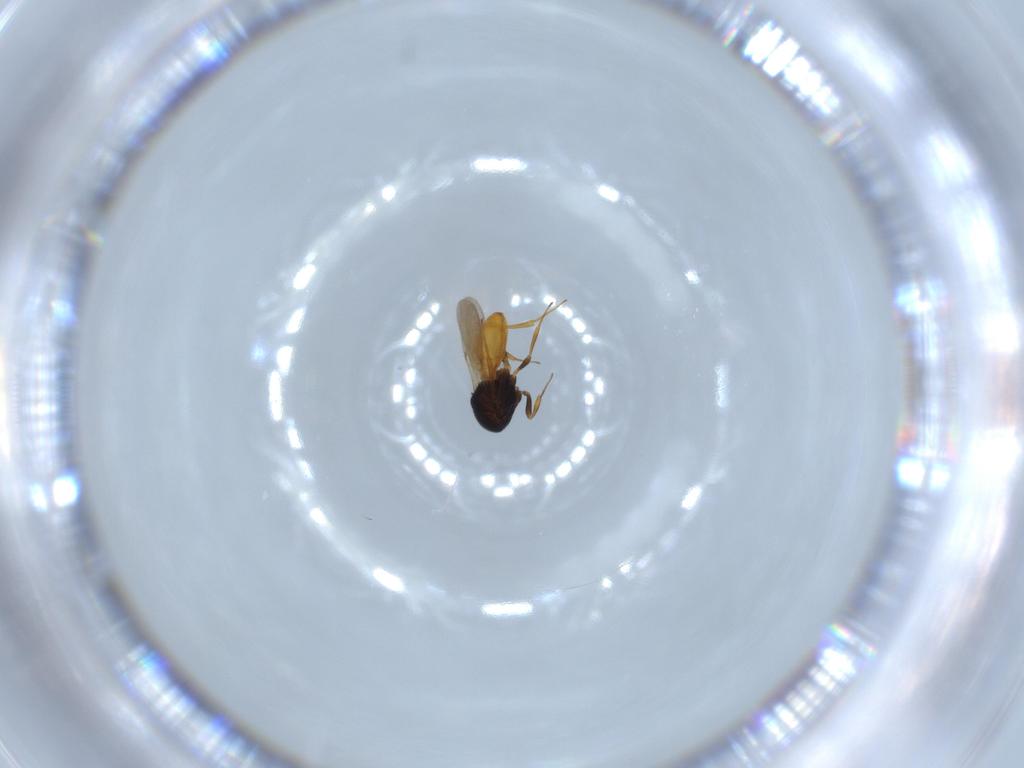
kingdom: Animalia
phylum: Arthropoda
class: Insecta
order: Hymenoptera
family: Scelionidae
